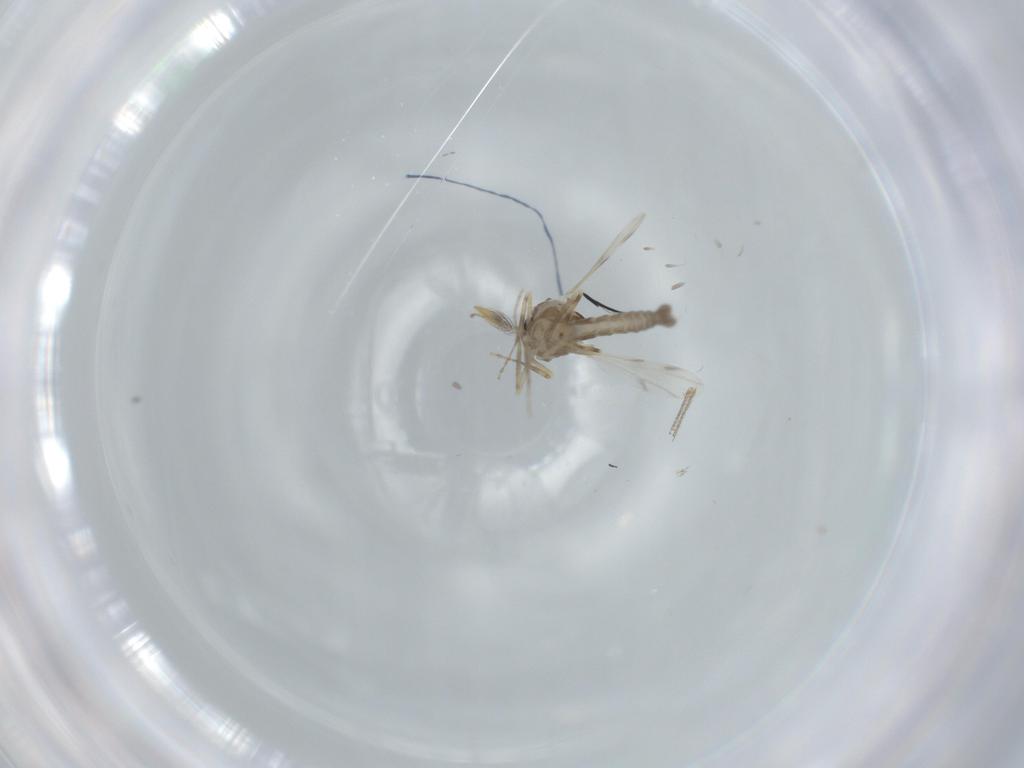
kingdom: Animalia
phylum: Arthropoda
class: Insecta
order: Diptera
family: Ceratopogonidae
